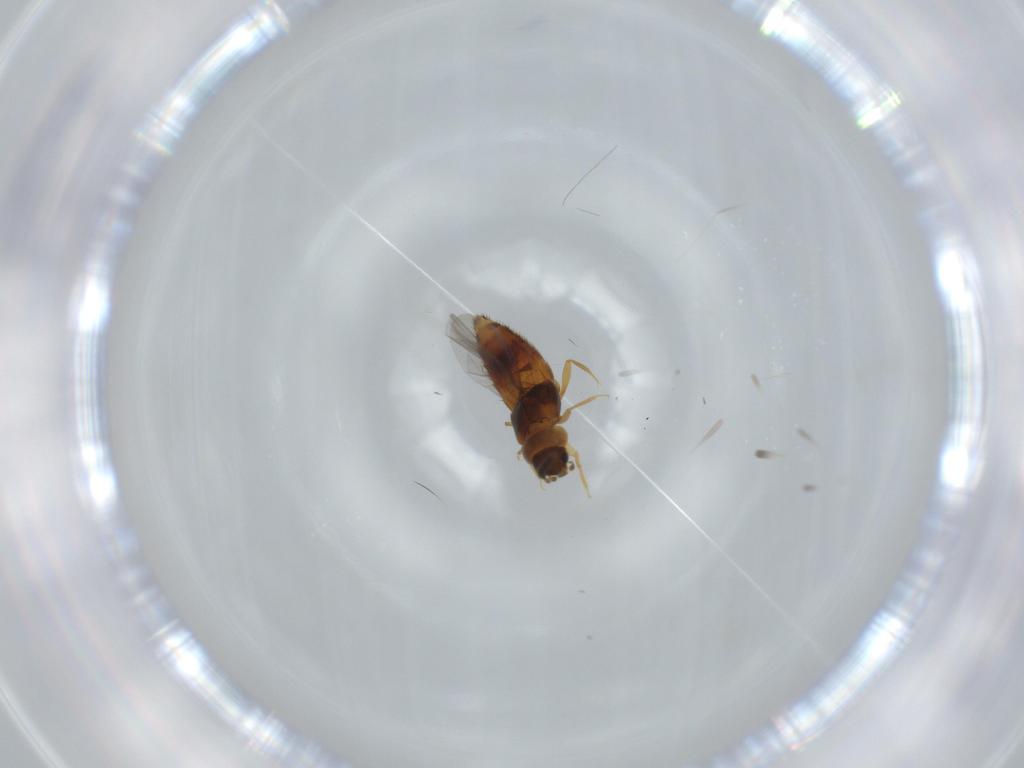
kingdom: Animalia
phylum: Arthropoda
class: Insecta
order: Coleoptera
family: Staphylinidae
